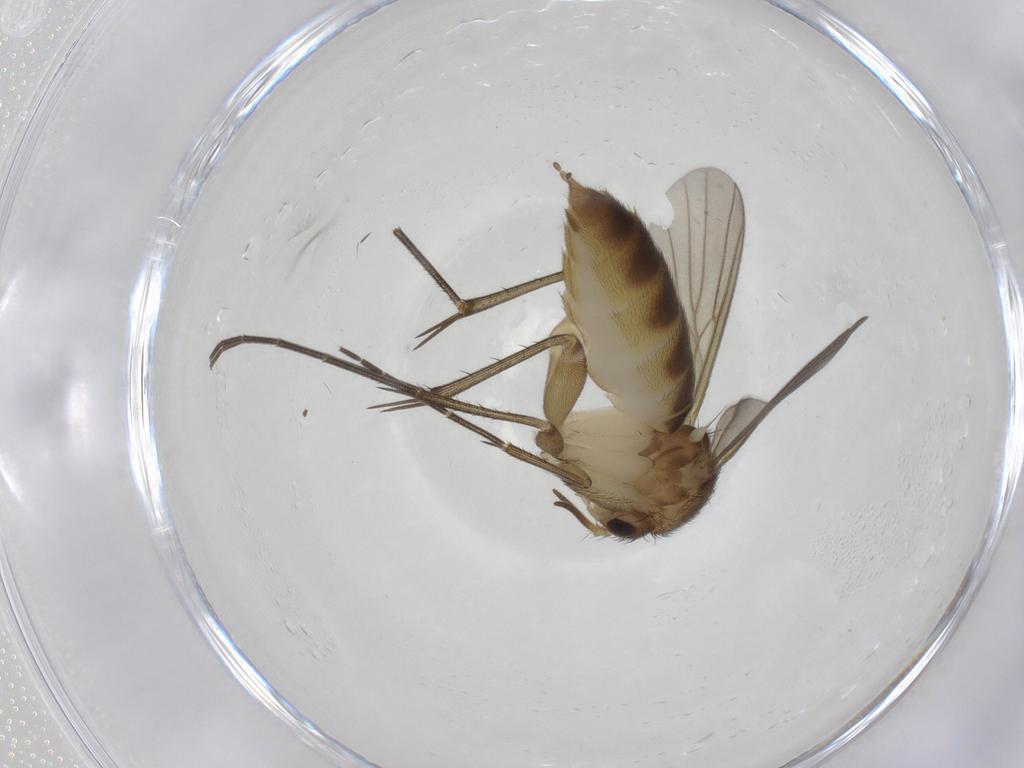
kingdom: Animalia
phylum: Arthropoda
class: Insecta
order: Diptera
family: Mycetophilidae
